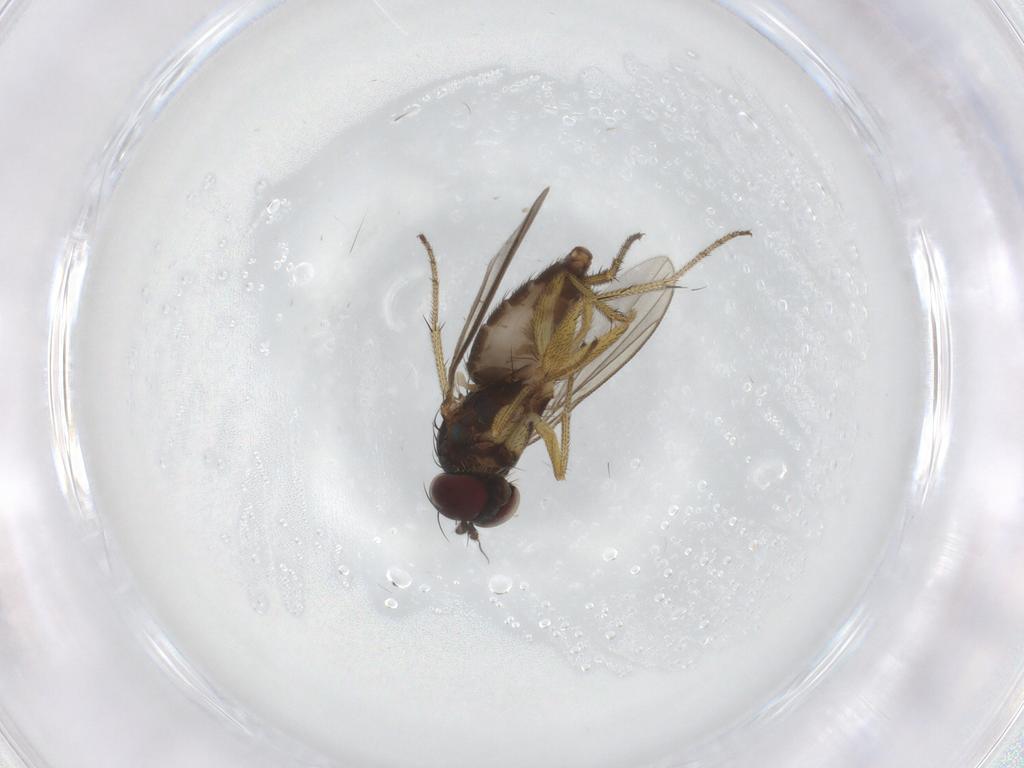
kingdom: Animalia
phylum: Arthropoda
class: Insecta
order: Diptera
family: Dolichopodidae
